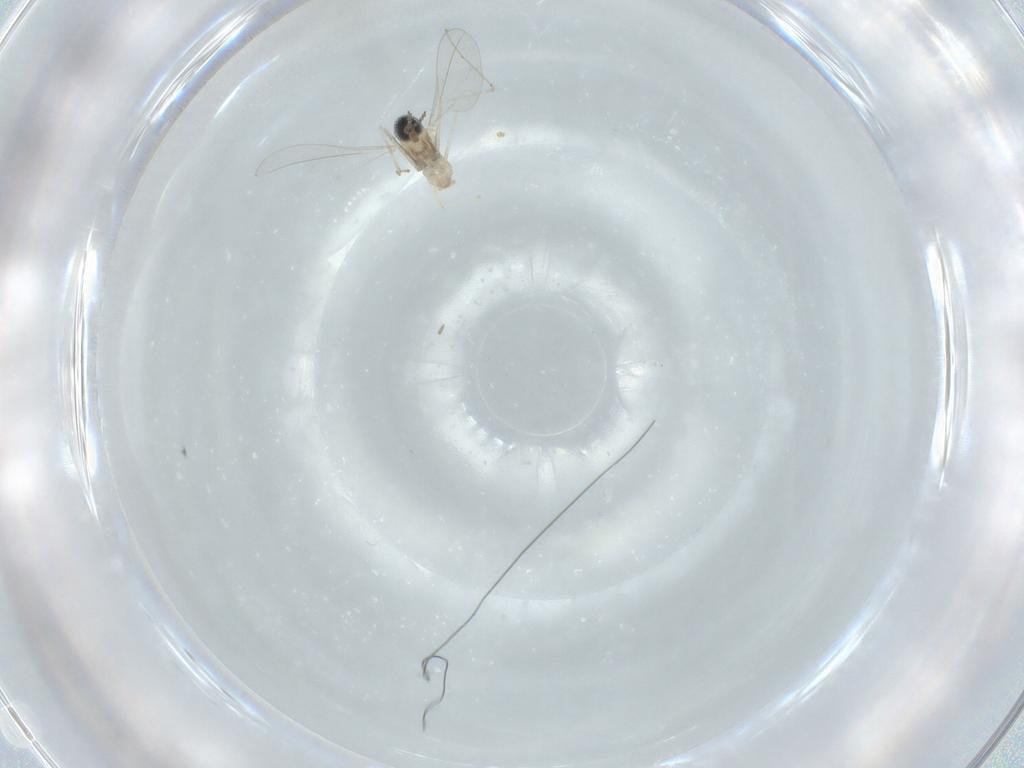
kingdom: Animalia
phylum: Arthropoda
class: Insecta
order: Diptera
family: Cecidomyiidae
